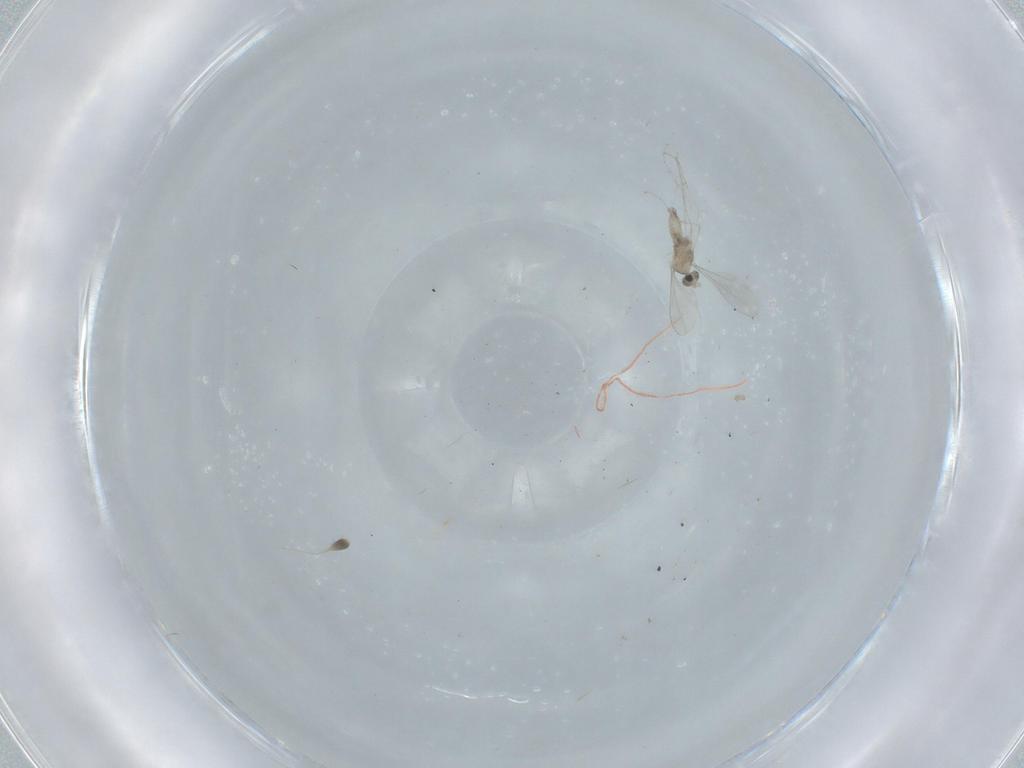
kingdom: Animalia
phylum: Arthropoda
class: Insecta
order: Diptera
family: Cecidomyiidae
